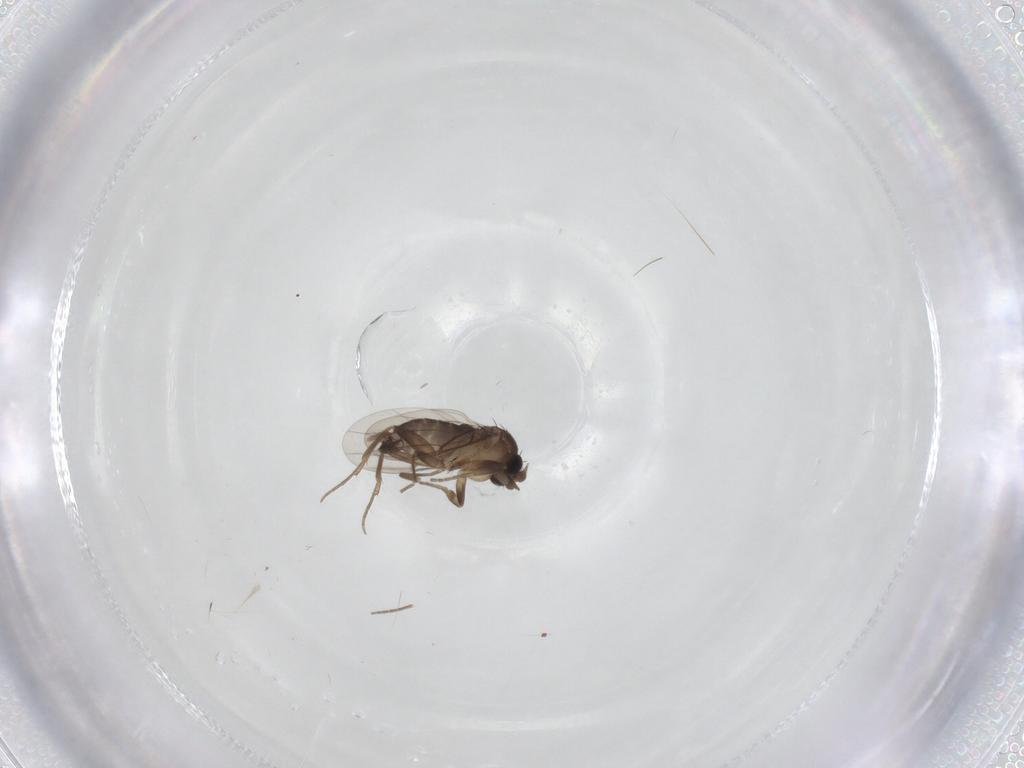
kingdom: Animalia
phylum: Arthropoda
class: Insecta
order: Diptera
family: Phoridae
